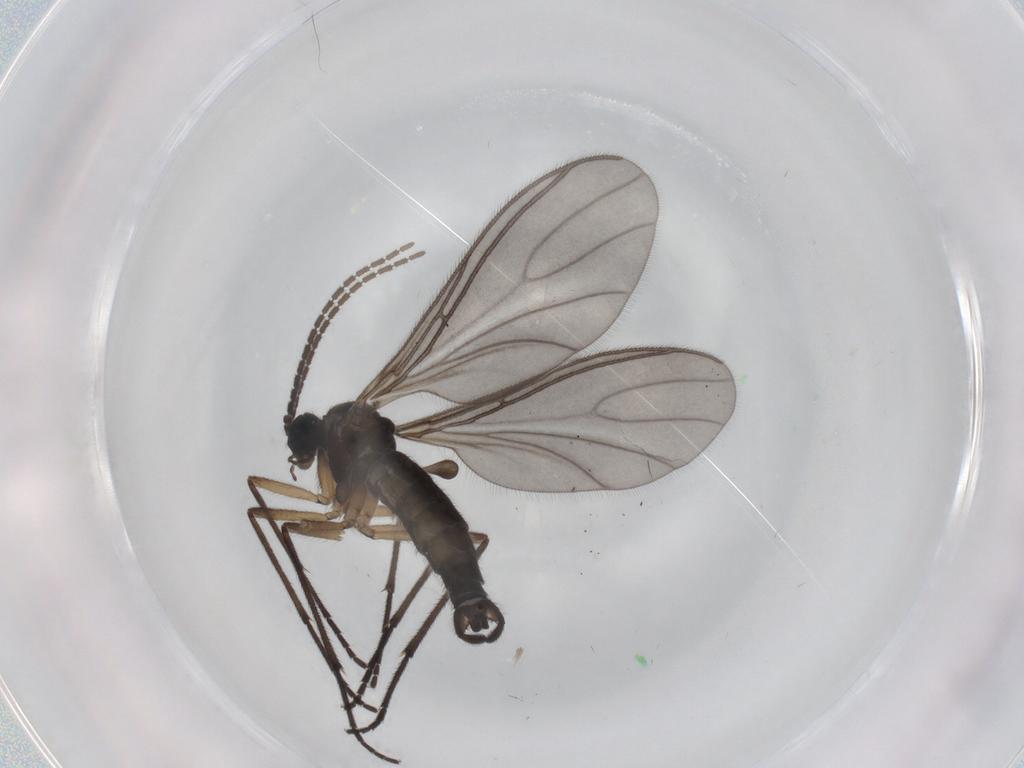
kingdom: Animalia
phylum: Arthropoda
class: Insecta
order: Diptera
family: Sciaridae
